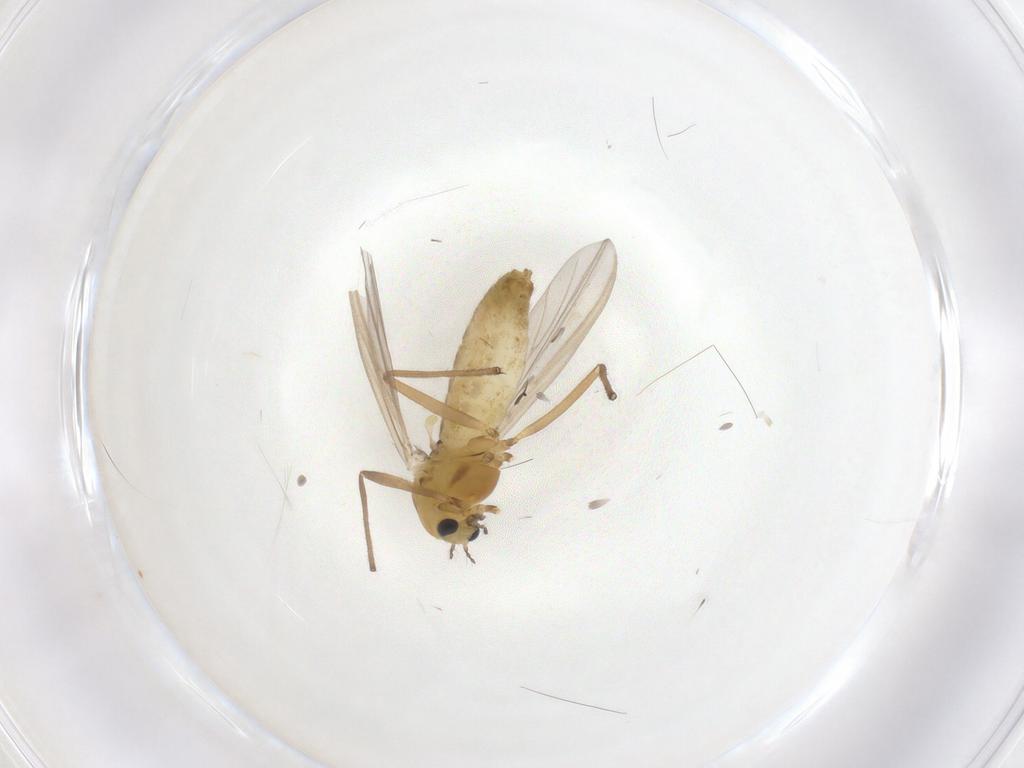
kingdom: Animalia
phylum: Arthropoda
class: Insecta
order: Diptera
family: Chironomidae
